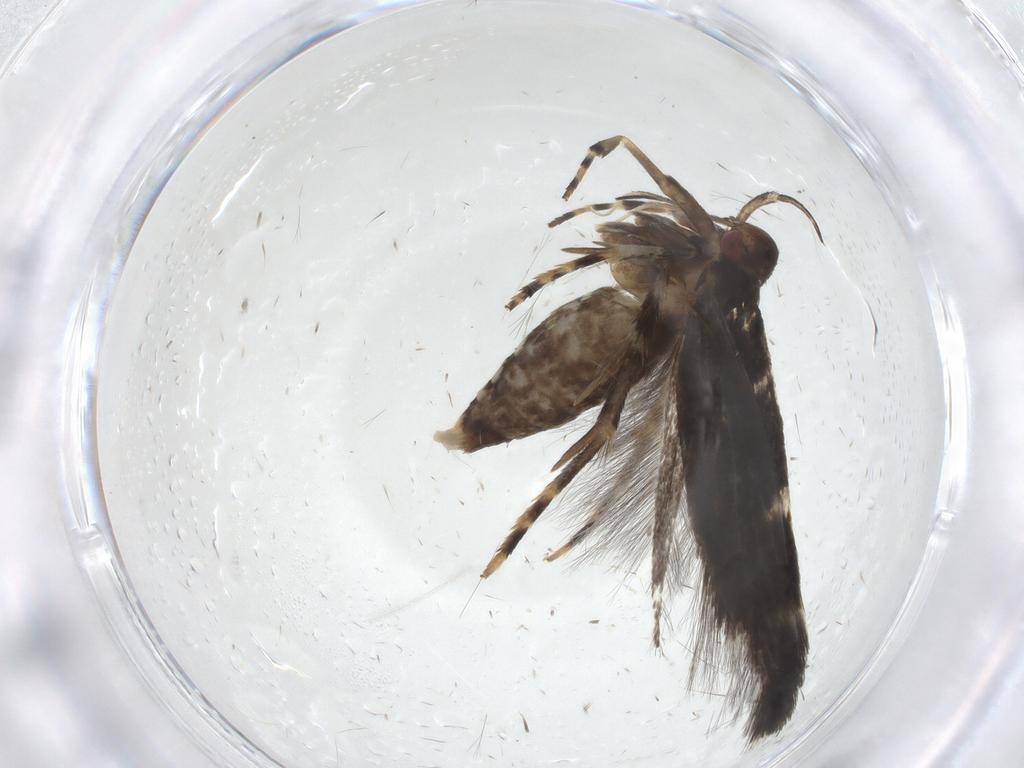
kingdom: Animalia
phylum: Arthropoda
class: Insecta
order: Lepidoptera
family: Cosmopterigidae
